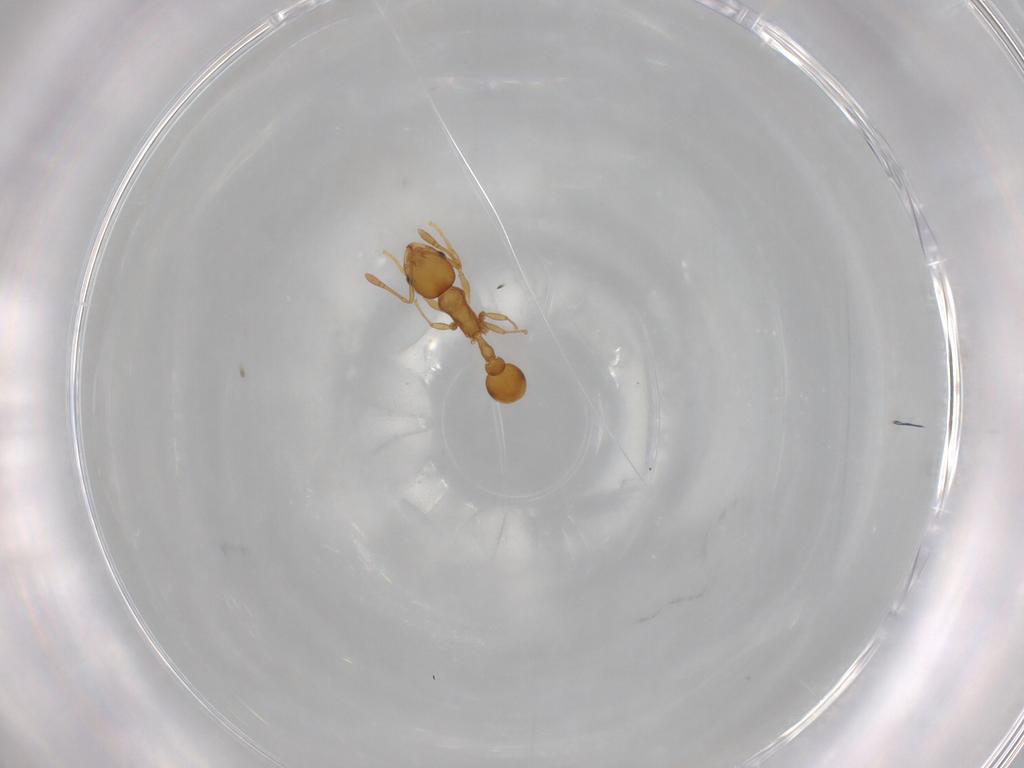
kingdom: Animalia
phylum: Arthropoda
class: Insecta
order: Hymenoptera
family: Formicidae
